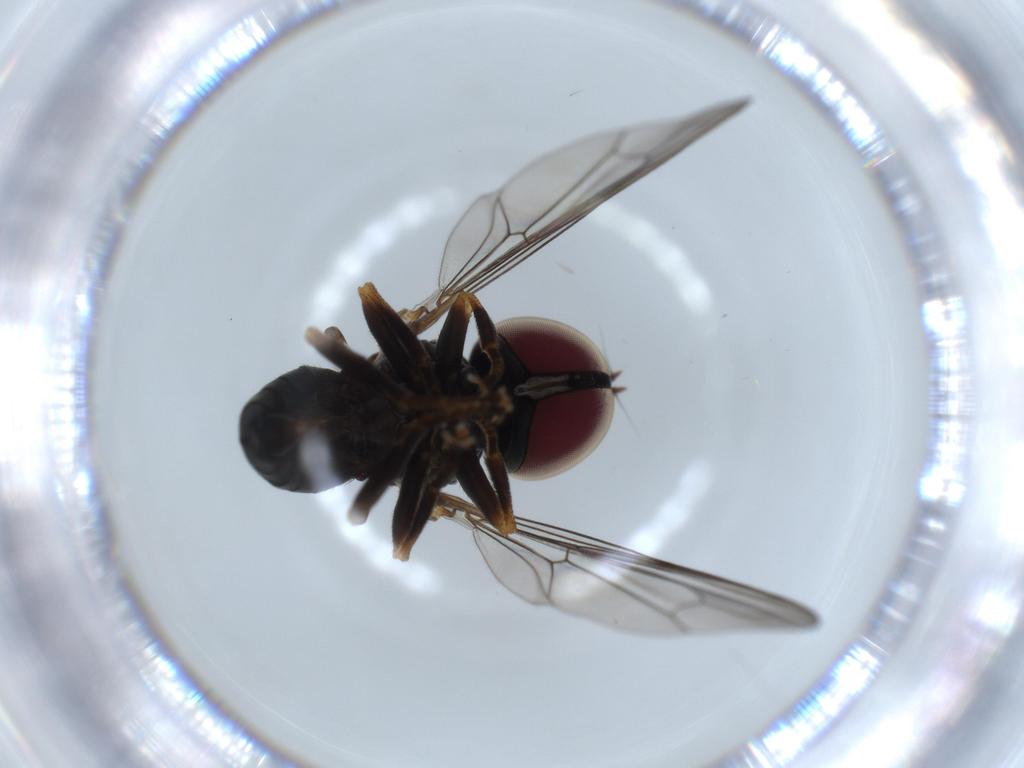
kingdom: Animalia
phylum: Arthropoda
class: Insecta
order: Diptera
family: Pipunculidae
